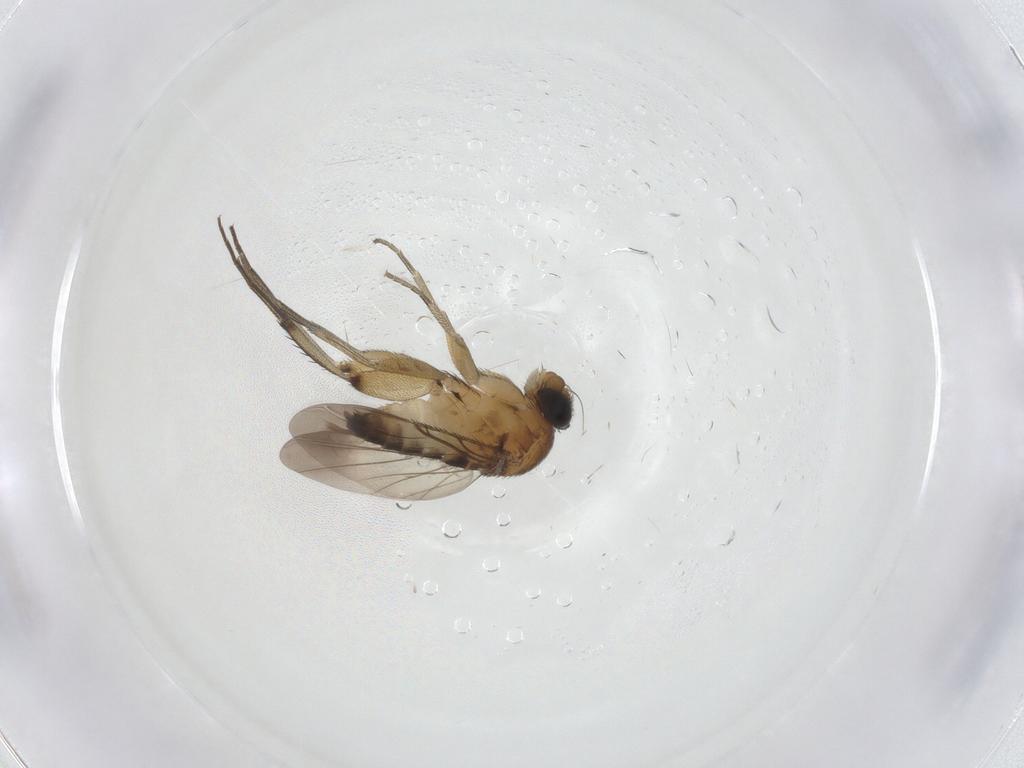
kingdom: Animalia
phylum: Arthropoda
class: Insecta
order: Diptera
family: Phoridae
